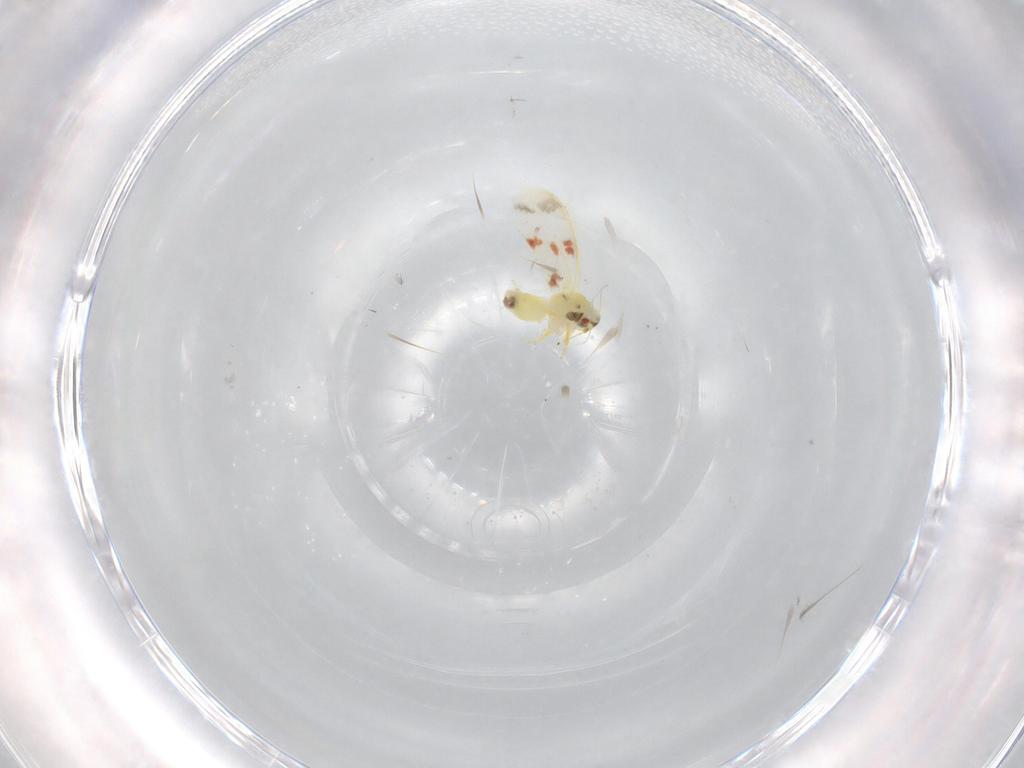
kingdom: Animalia
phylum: Arthropoda
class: Insecta
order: Hemiptera
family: Aleyrodidae
